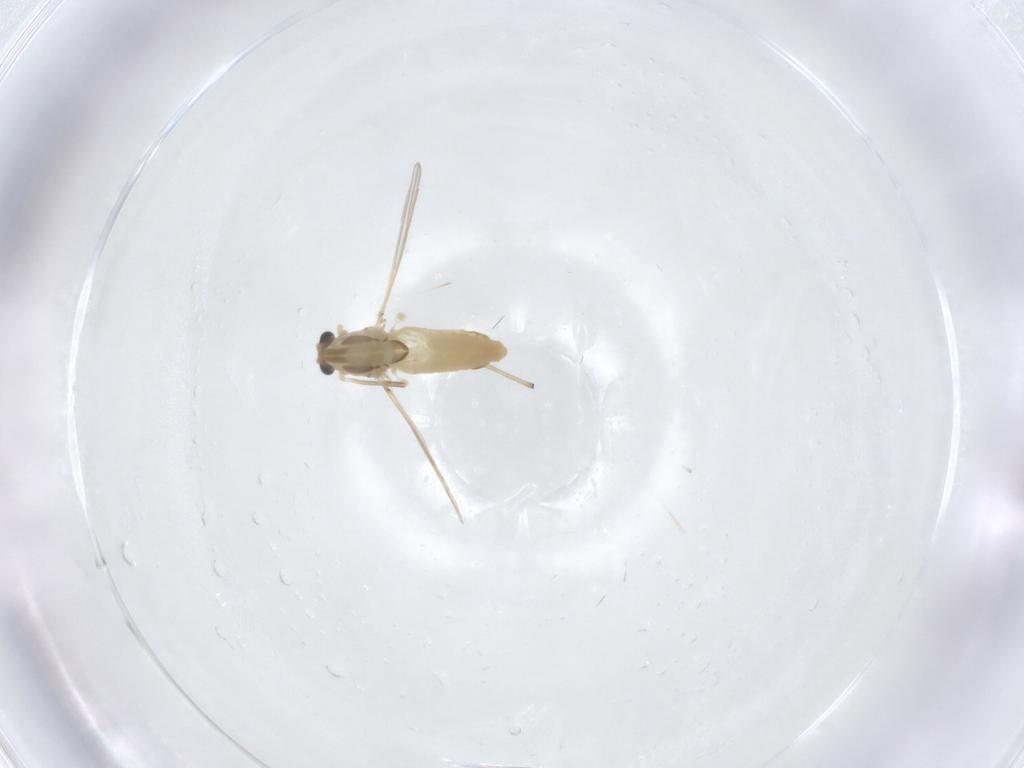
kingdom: Animalia
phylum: Arthropoda
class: Insecta
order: Diptera
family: Chironomidae
